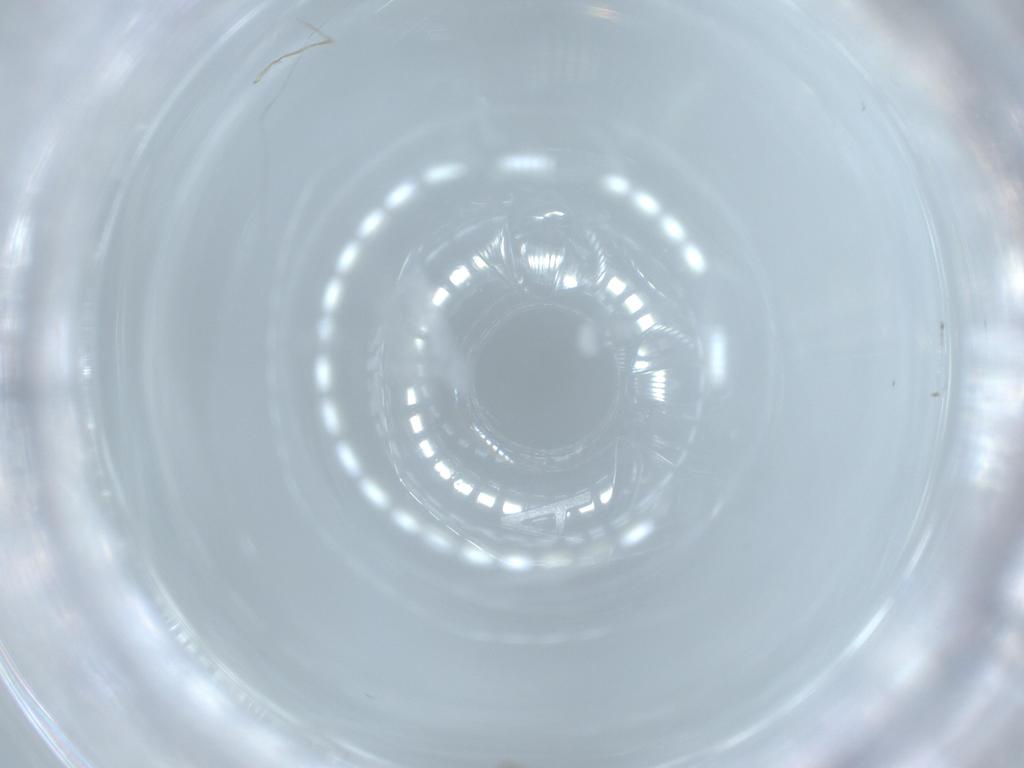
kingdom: Animalia
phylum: Arthropoda
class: Insecta
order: Diptera
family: Cecidomyiidae
